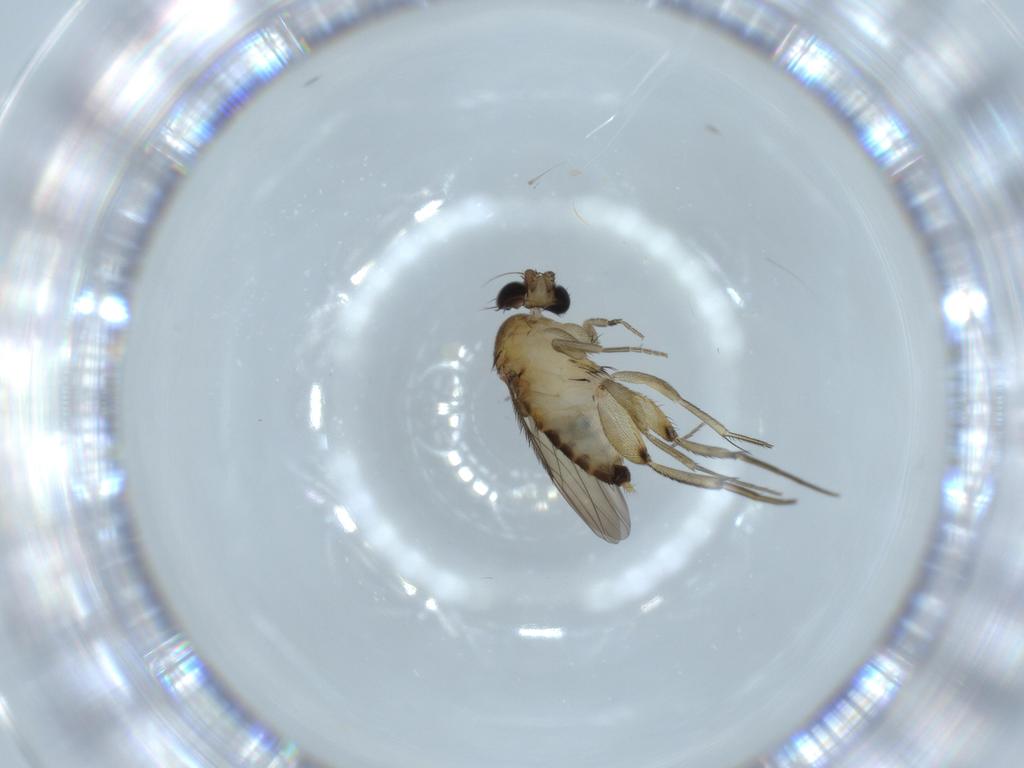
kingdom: Animalia
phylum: Arthropoda
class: Insecta
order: Diptera
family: Phoridae
